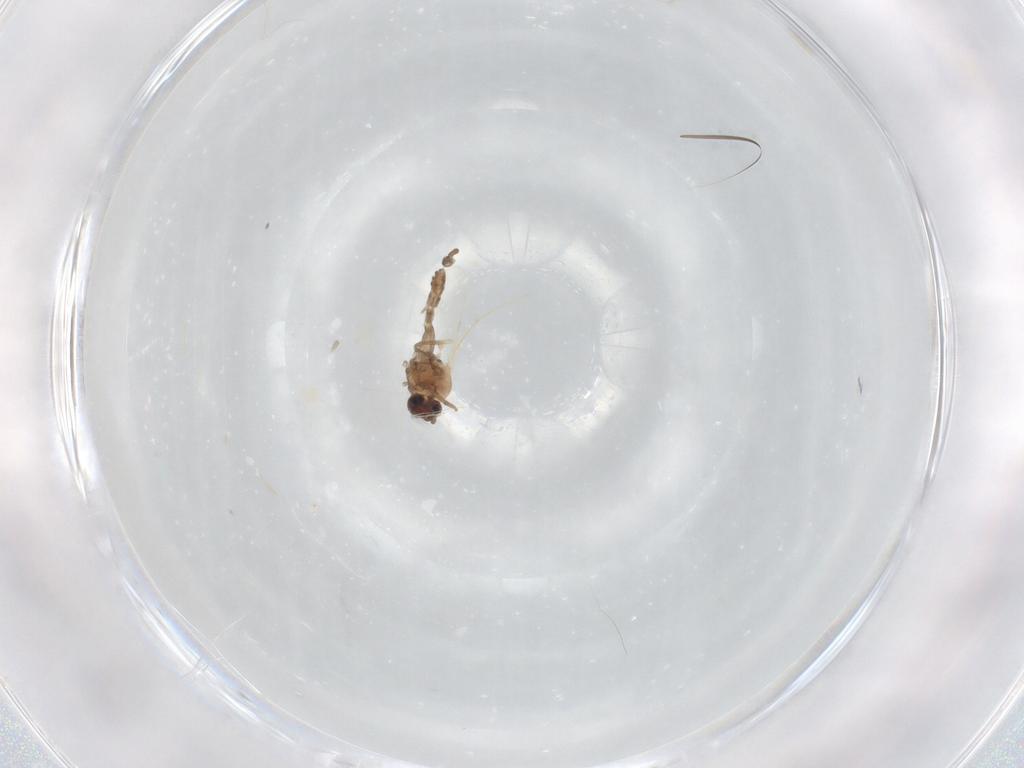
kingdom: Animalia
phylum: Arthropoda
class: Insecta
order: Diptera
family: Ceratopogonidae
